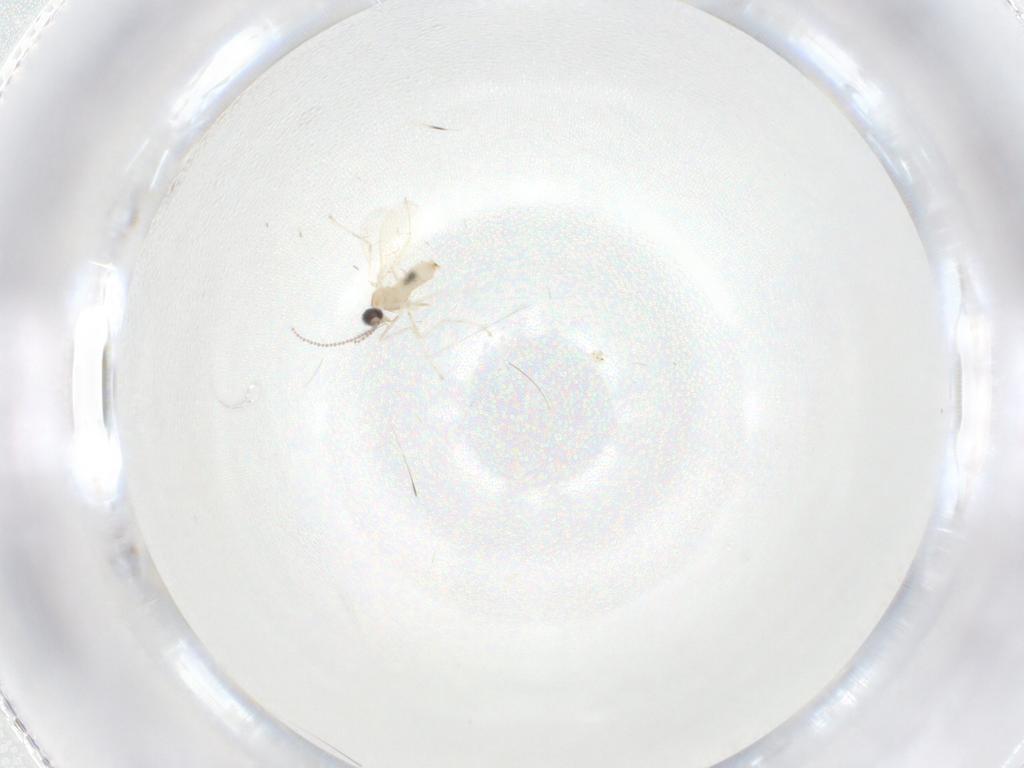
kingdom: Animalia
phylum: Arthropoda
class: Insecta
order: Diptera
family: Cecidomyiidae
